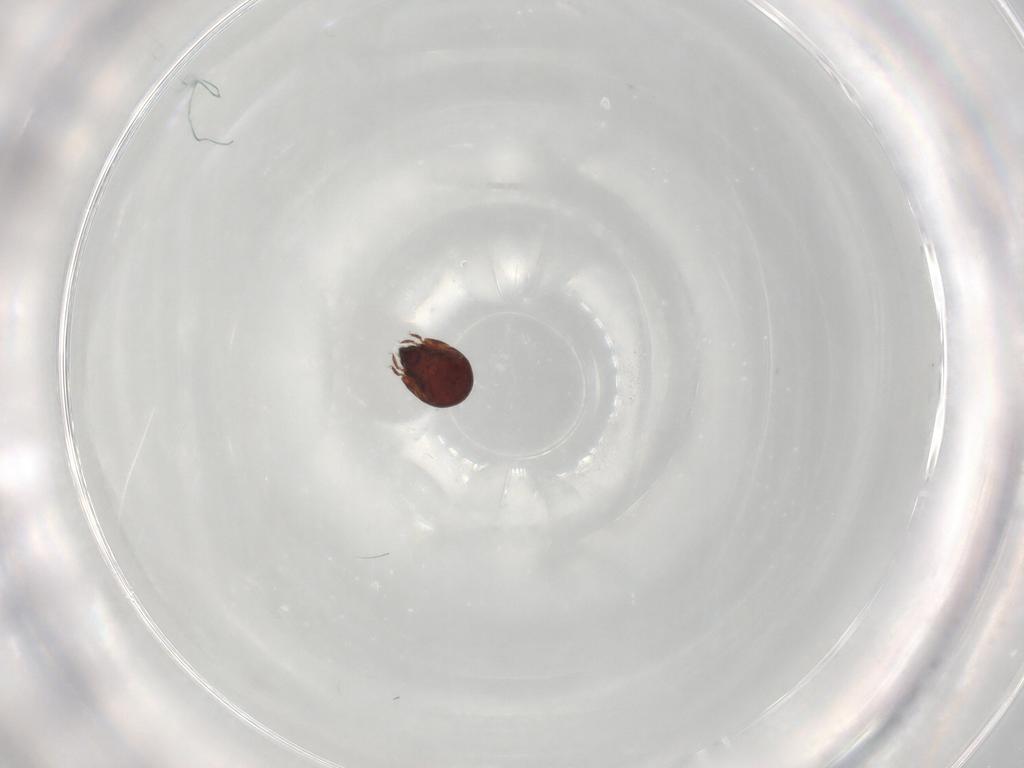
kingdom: Animalia
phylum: Arthropoda
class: Arachnida
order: Sarcoptiformes
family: Humerobatidae
